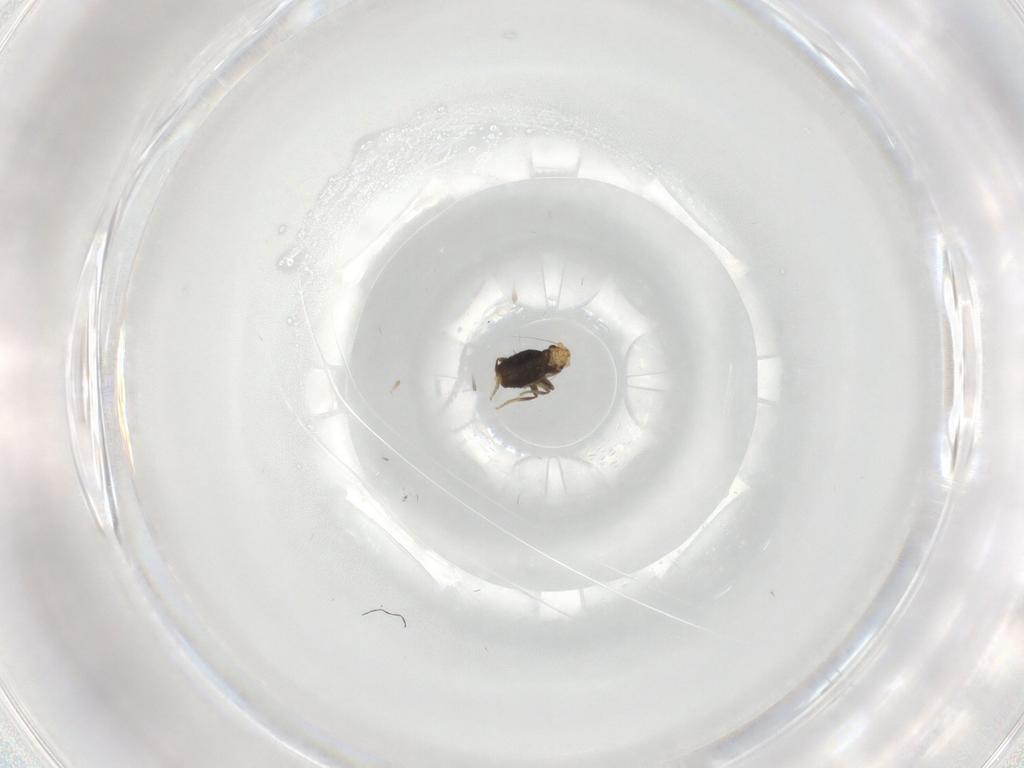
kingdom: Animalia
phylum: Arthropoda
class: Insecta
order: Diptera
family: Phoridae
